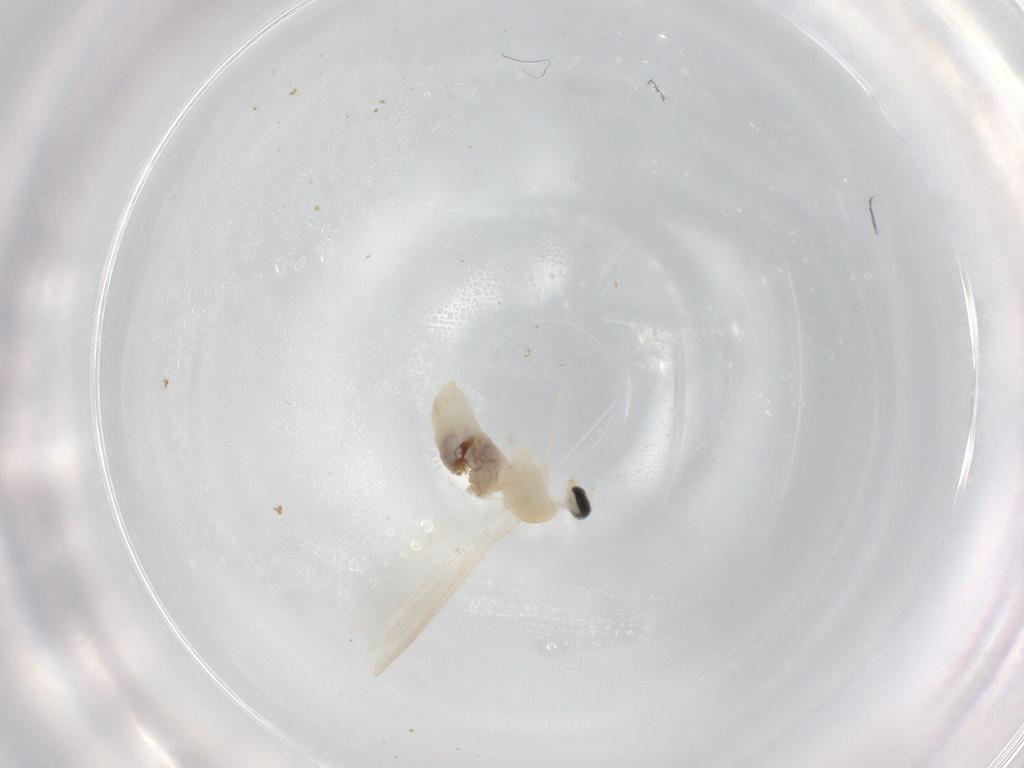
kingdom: Animalia
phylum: Arthropoda
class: Insecta
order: Diptera
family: Cecidomyiidae
